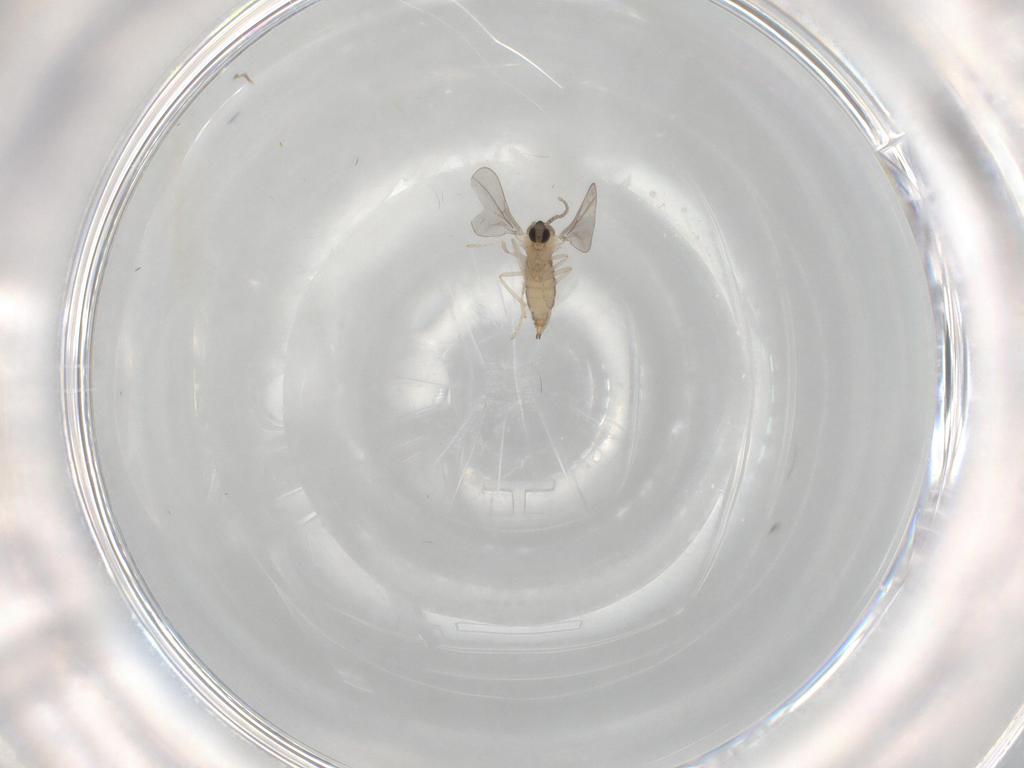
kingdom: Animalia
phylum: Arthropoda
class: Insecta
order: Diptera
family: Cecidomyiidae
